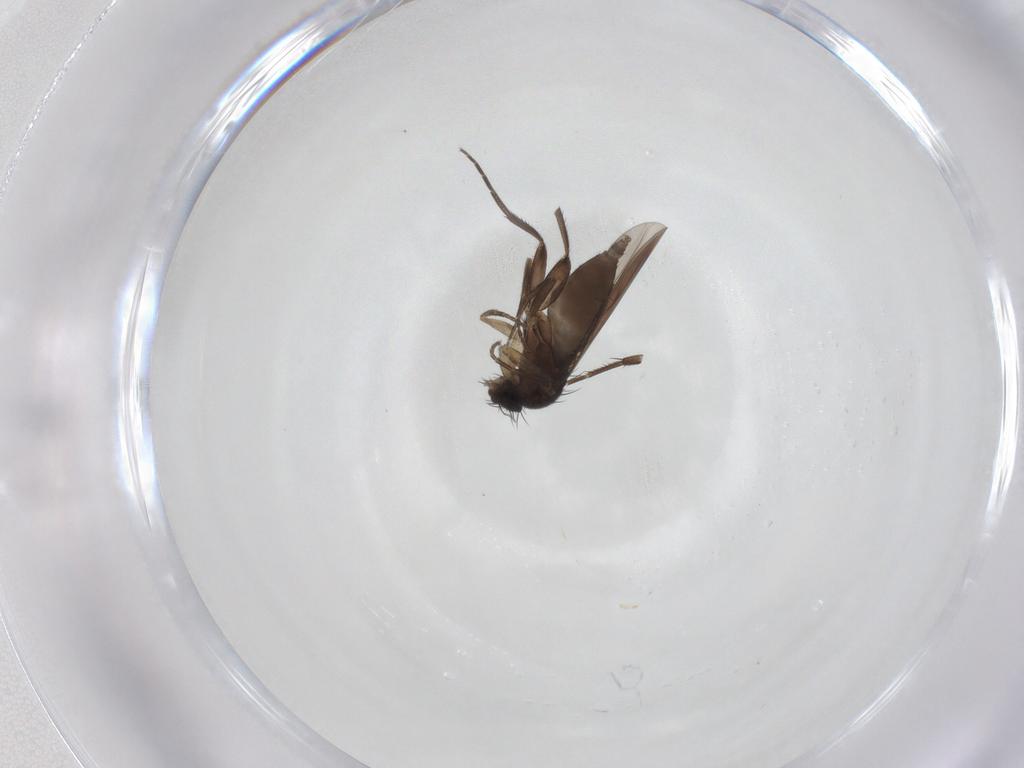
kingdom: Animalia
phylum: Arthropoda
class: Insecta
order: Diptera
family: Phoridae
